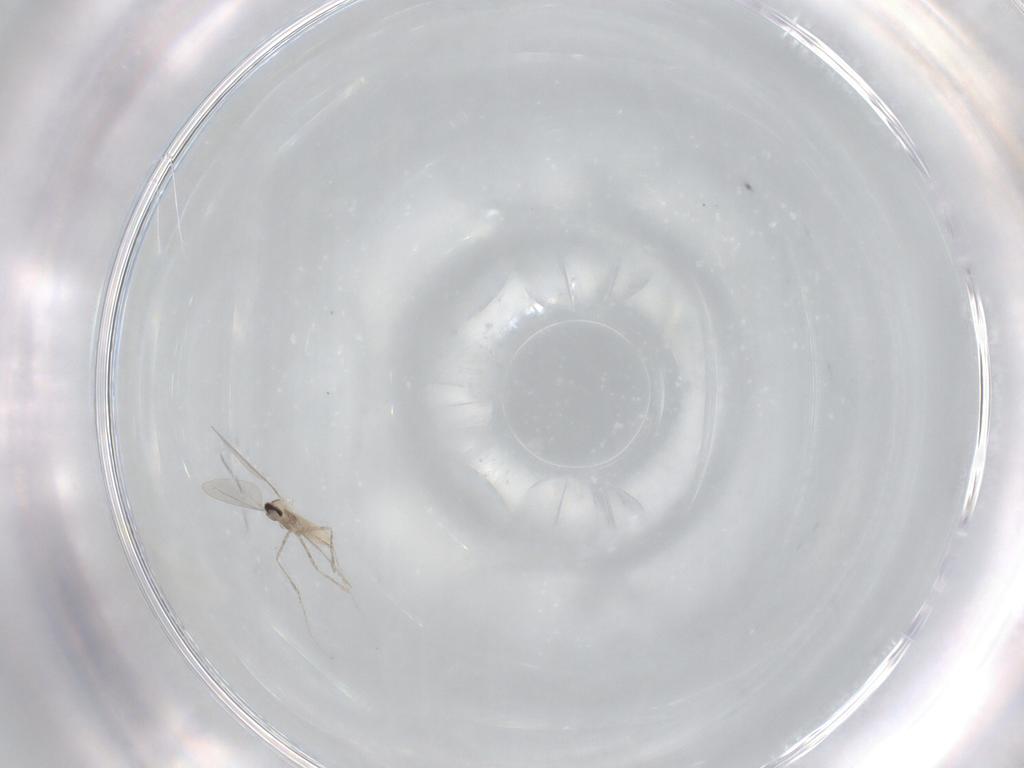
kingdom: Animalia
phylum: Arthropoda
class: Insecta
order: Diptera
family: Cecidomyiidae
